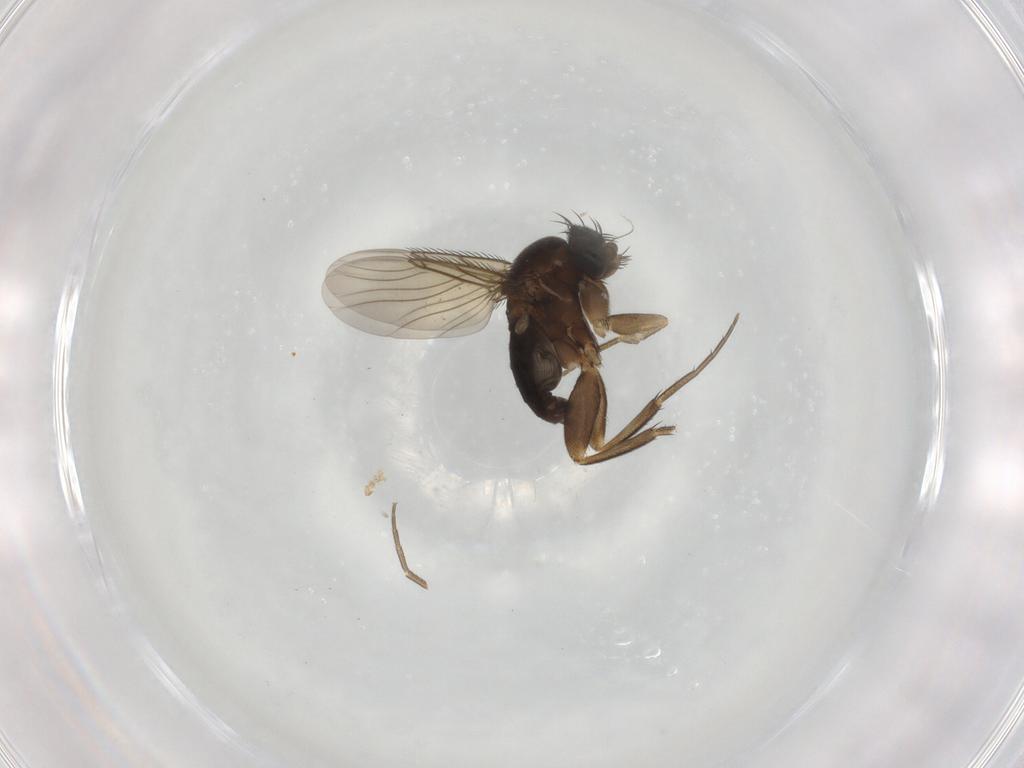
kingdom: Animalia
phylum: Arthropoda
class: Insecta
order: Diptera
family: Phoridae
